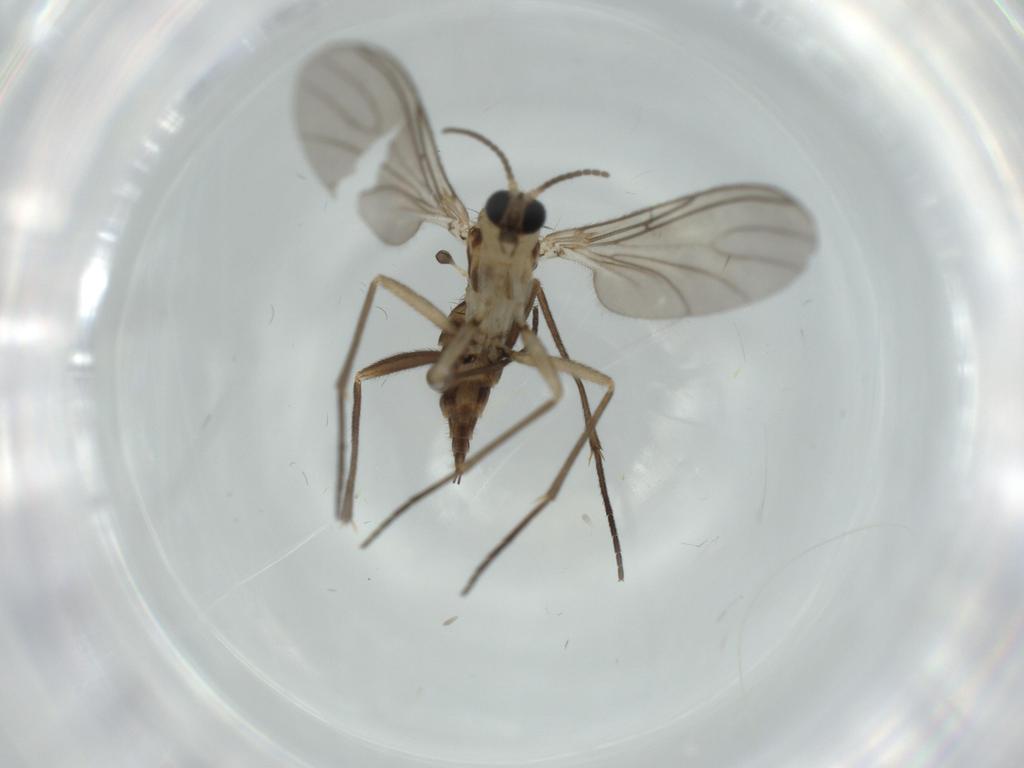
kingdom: Animalia
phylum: Arthropoda
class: Insecta
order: Diptera
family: Sciaridae
